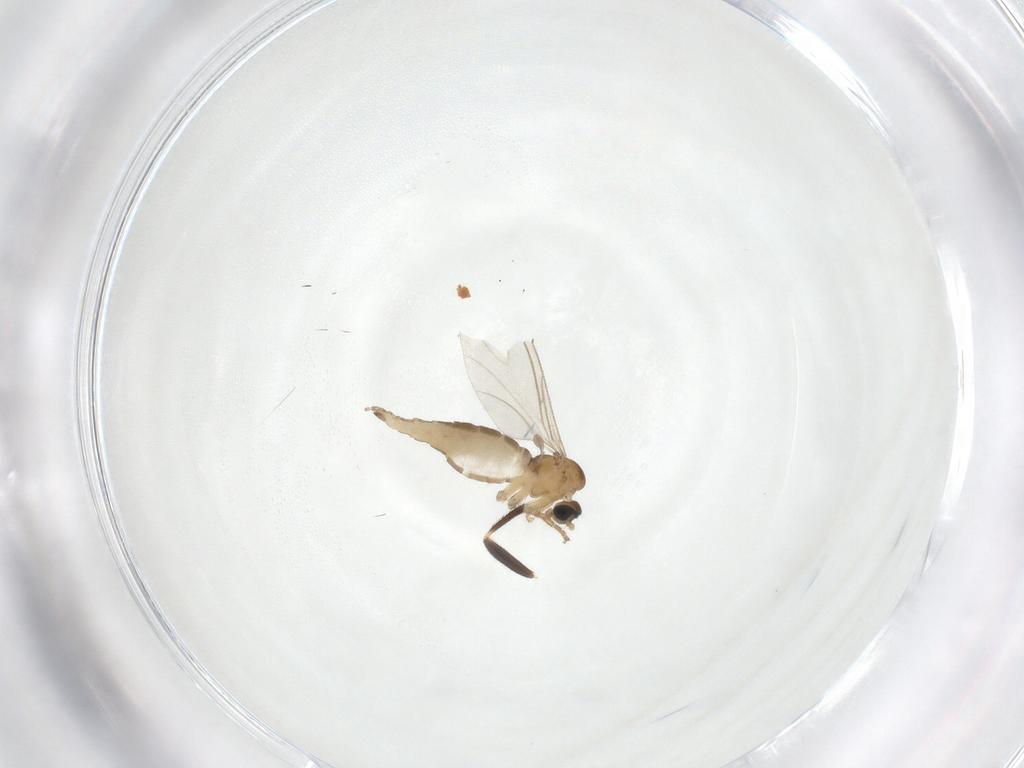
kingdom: Animalia
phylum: Arthropoda
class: Insecta
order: Diptera
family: Sciaridae
